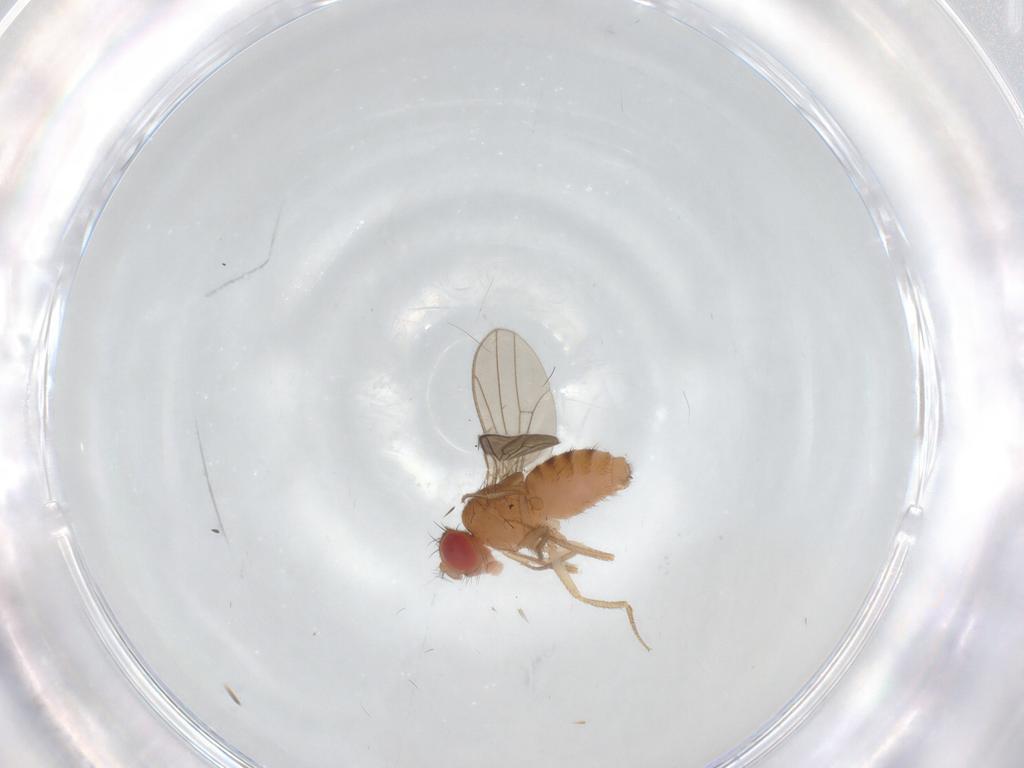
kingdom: Animalia
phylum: Arthropoda
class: Insecta
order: Diptera
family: Drosophilidae
